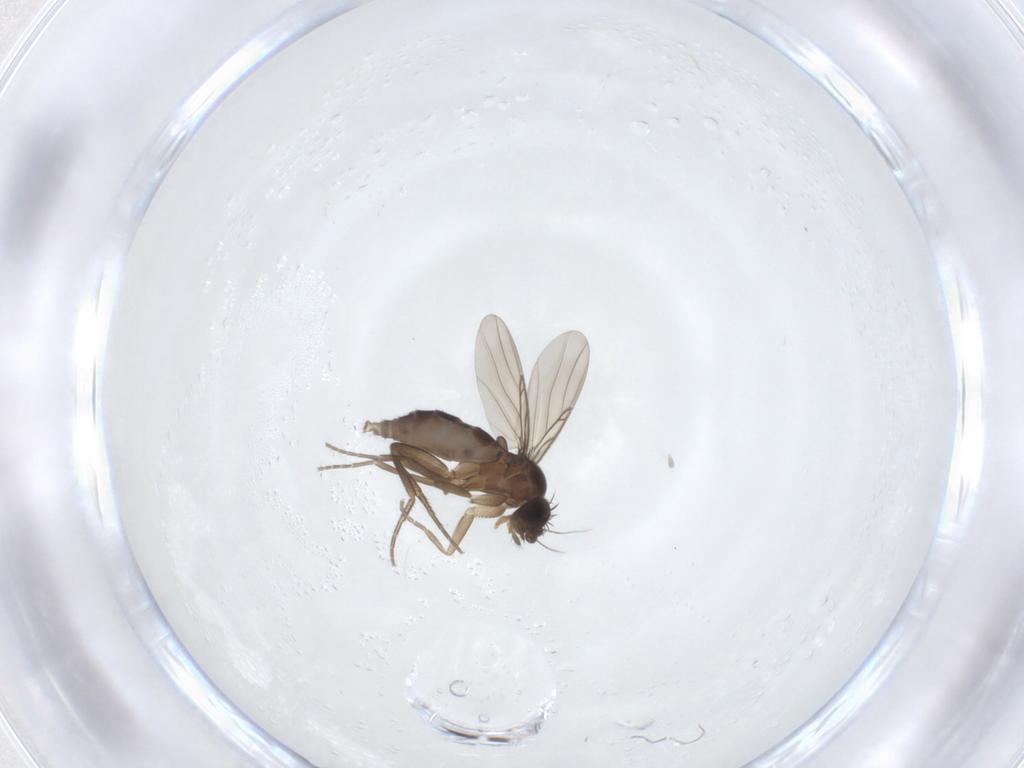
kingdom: Animalia
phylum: Arthropoda
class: Insecta
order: Diptera
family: Phoridae
